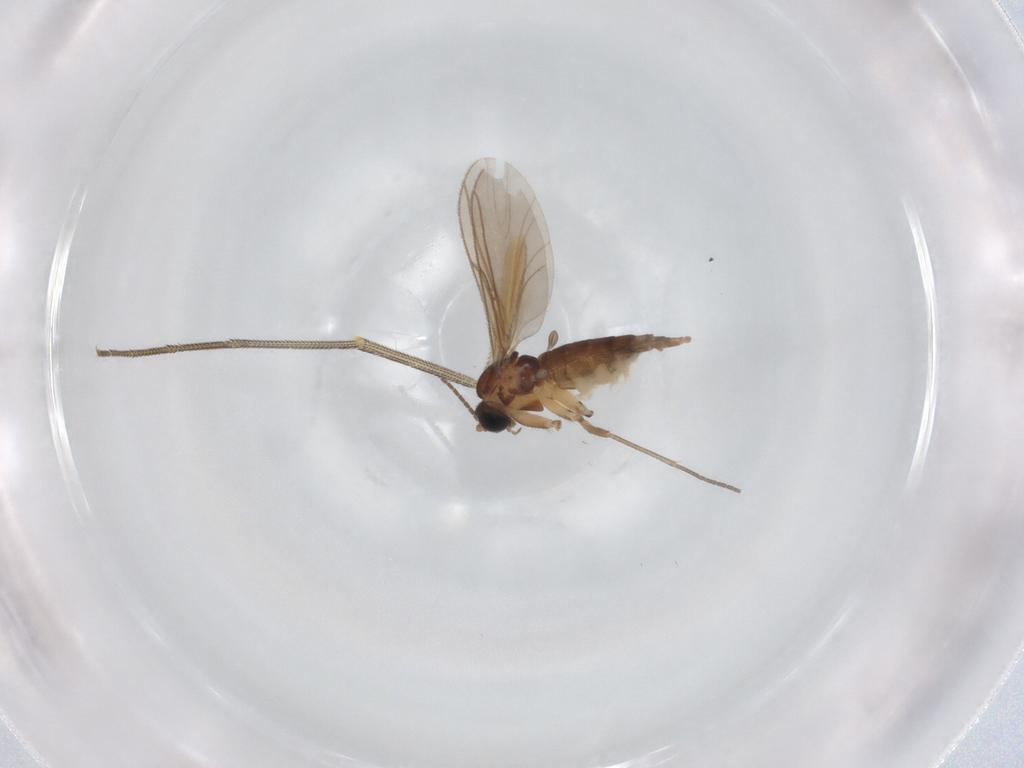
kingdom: Animalia
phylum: Arthropoda
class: Insecta
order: Diptera
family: Sciaridae
